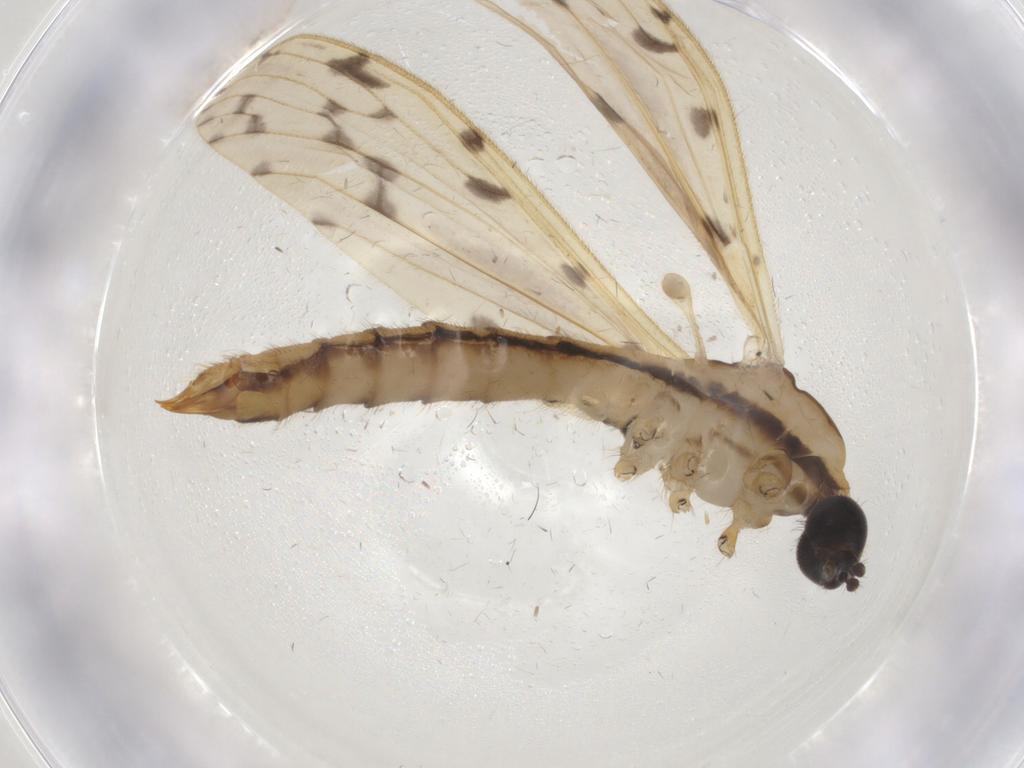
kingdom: Animalia
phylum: Arthropoda
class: Insecta
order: Diptera
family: Limoniidae
